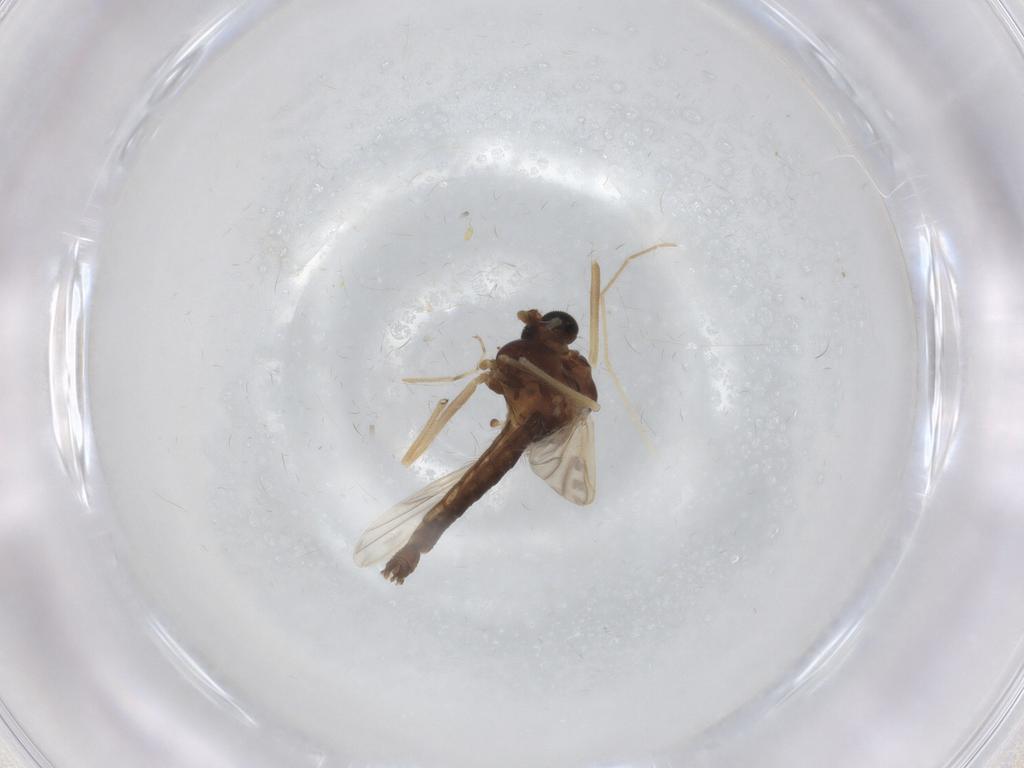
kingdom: Animalia
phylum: Arthropoda
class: Insecta
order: Diptera
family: Chironomidae
